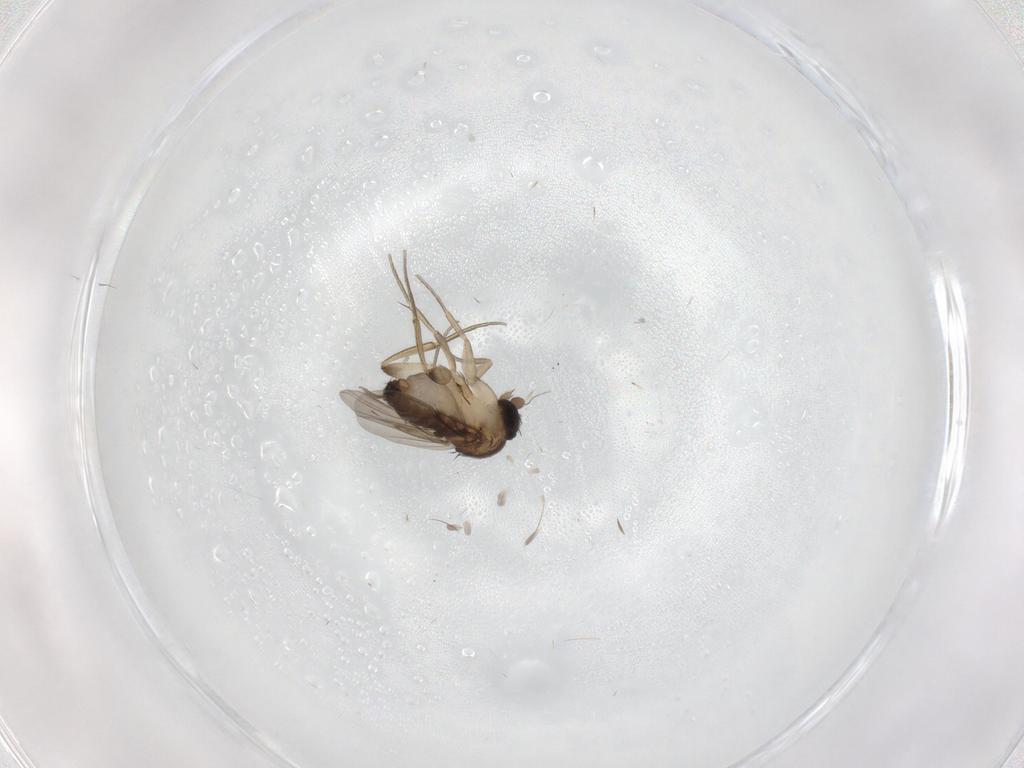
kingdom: Animalia
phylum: Arthropoda
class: Insecta
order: Diptera
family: Phoridae
